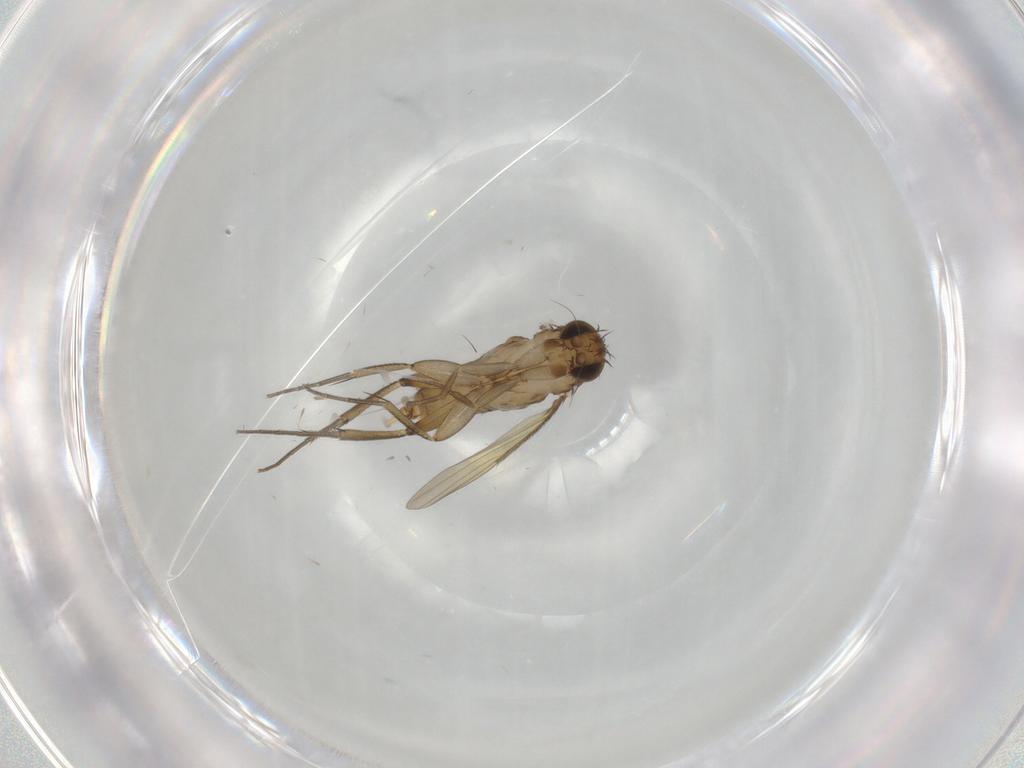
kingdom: Animalia
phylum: Arthropoda
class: Insecta
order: Diptera
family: Phoridae
